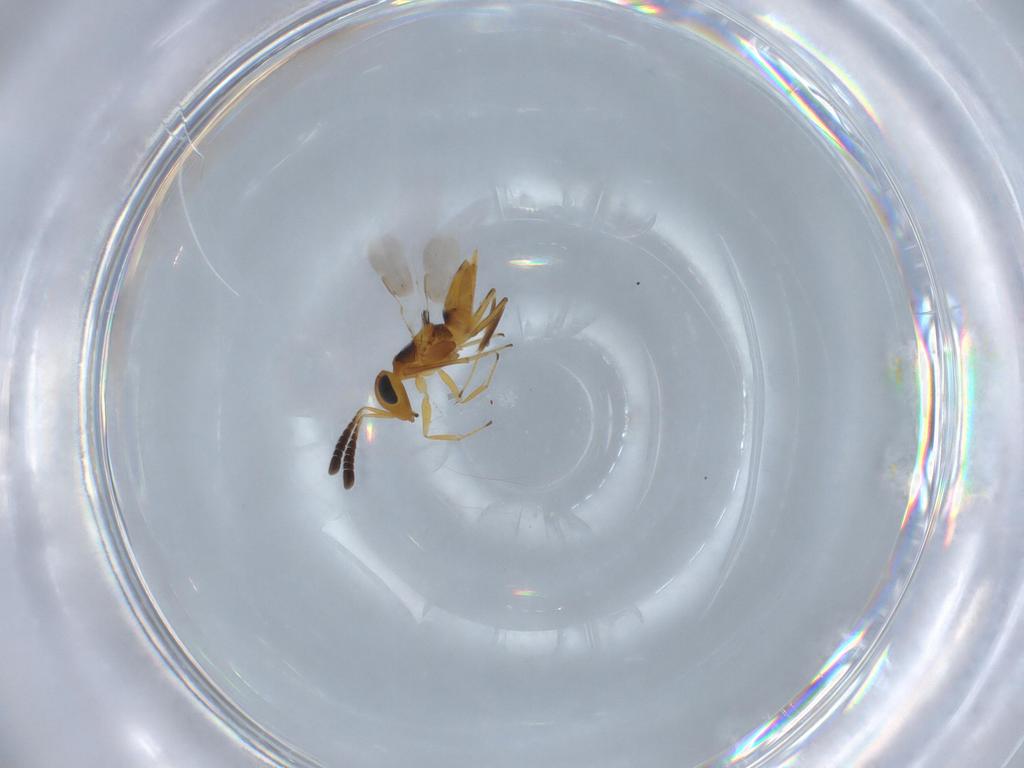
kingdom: Animalia
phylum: Arthropoda
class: Insecta
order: Hymenoptera
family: Encyrtidae
